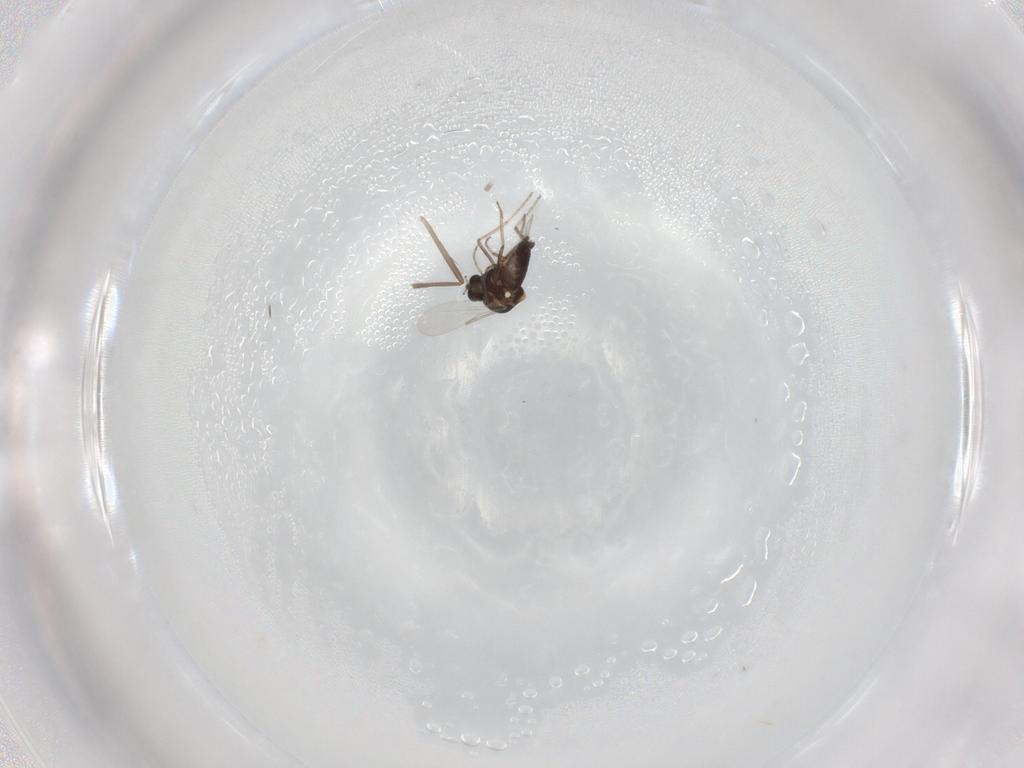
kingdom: Animalia
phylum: Arthropoda
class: Insecta
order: Diptera
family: Ceratopogonidae
